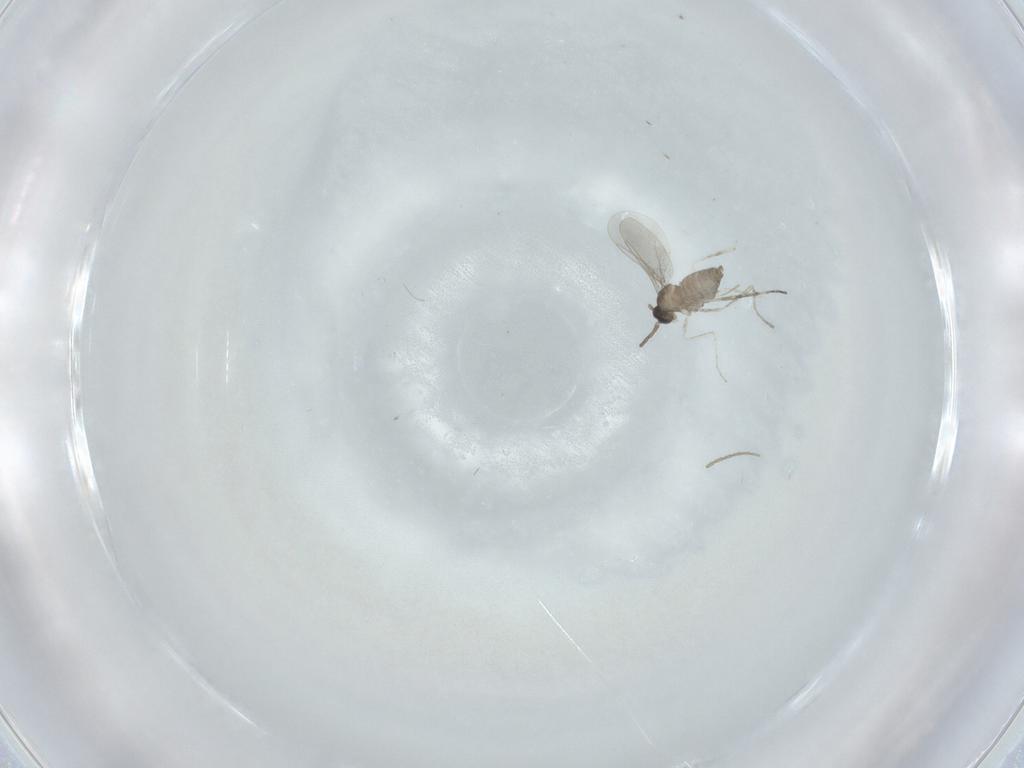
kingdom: Animalia
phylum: Arthropoda
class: Insecta
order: Diptera
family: Cecidomyiidae
